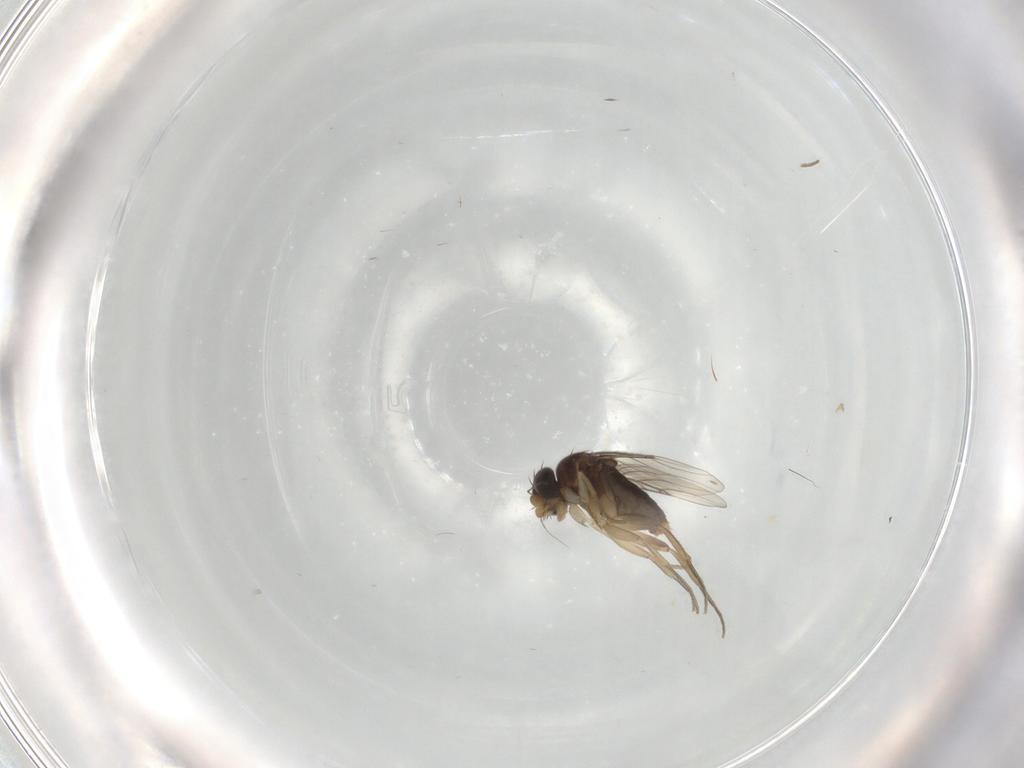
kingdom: Animalia
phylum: Arthropoda
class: Insecta
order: Diptera
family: Phoridae
